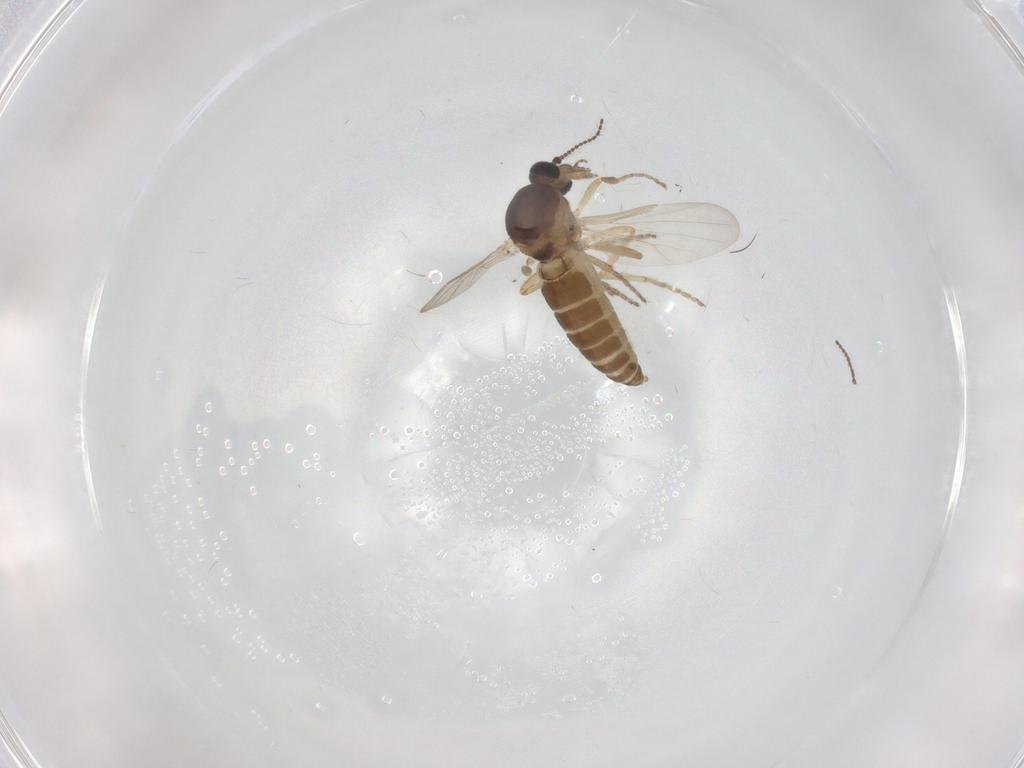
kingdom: Animalia
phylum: Arthropoda
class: Insecta
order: Diptera
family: Ceratopogonidae
